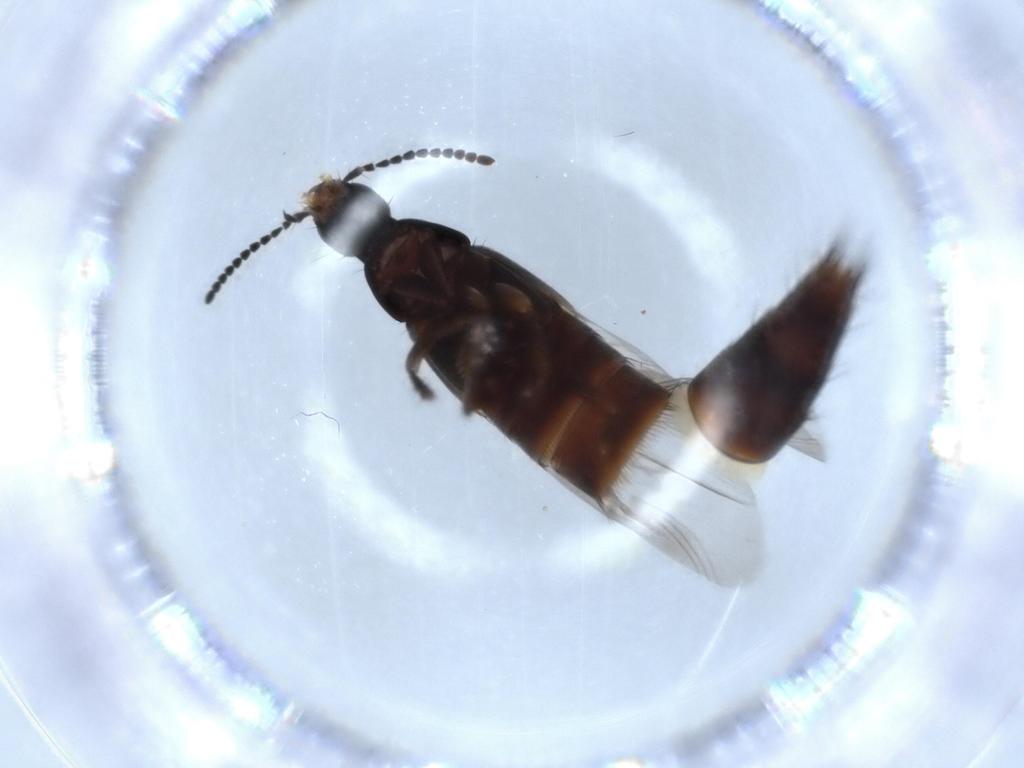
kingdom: Animalia
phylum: Arthropoda
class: Insecta
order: Coleoptera
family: Staphylinidae
